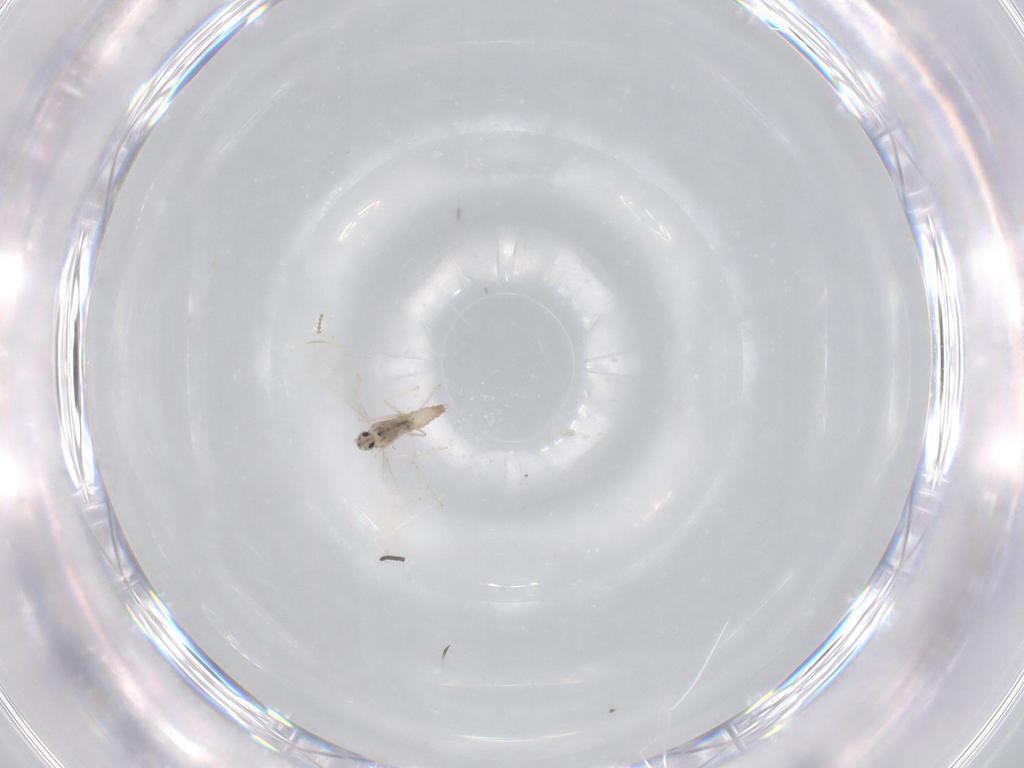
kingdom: Animalia
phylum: Arthropoda
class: Insecta
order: Diptera
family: Cecidomyiidae
